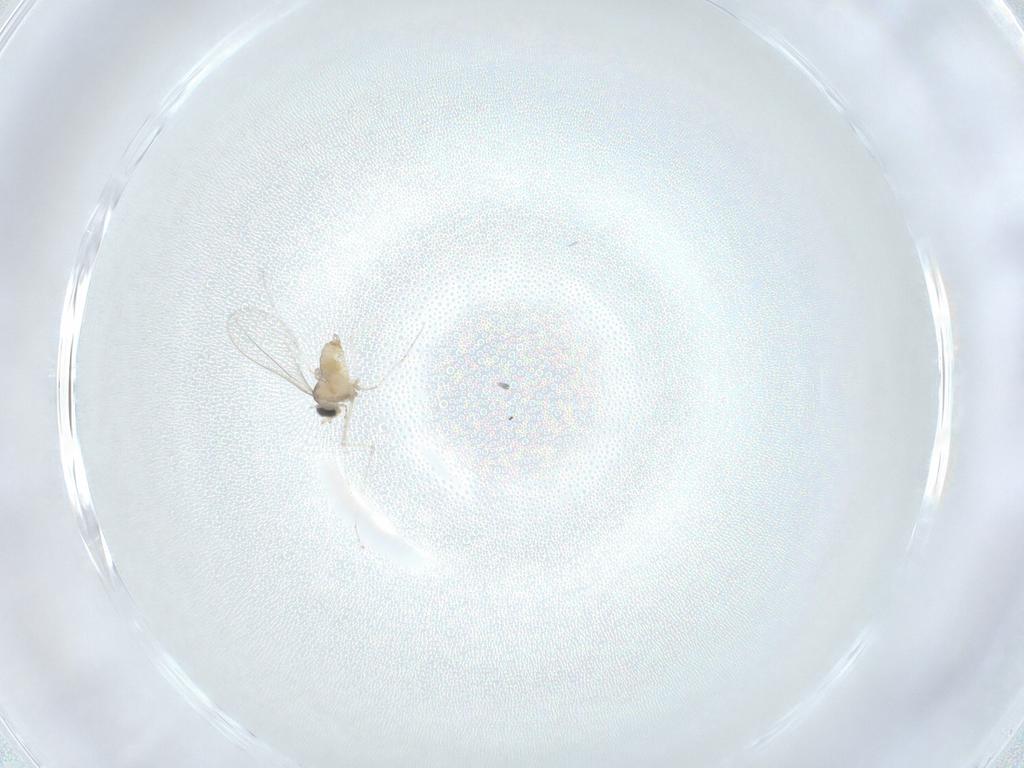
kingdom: Animalia
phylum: Arthropoda
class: Insecta
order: Diptera
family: Cecidomyiidae
